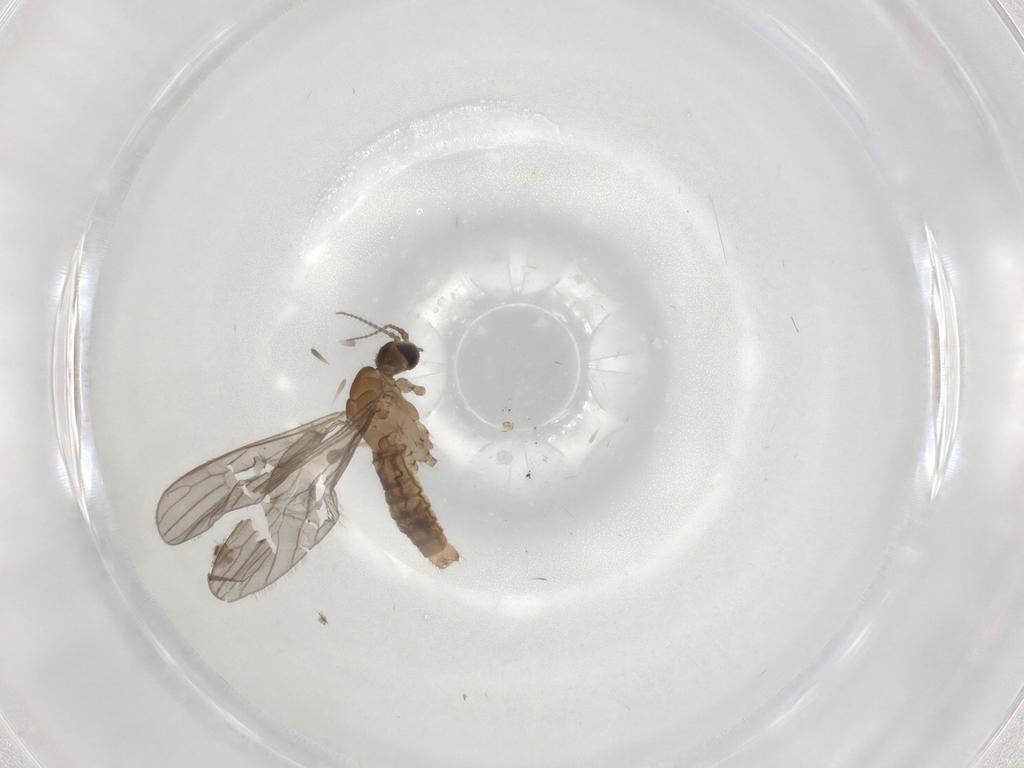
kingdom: Animalia
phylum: Arthropoda
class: Insecta
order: Diptera
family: Limoniidae
